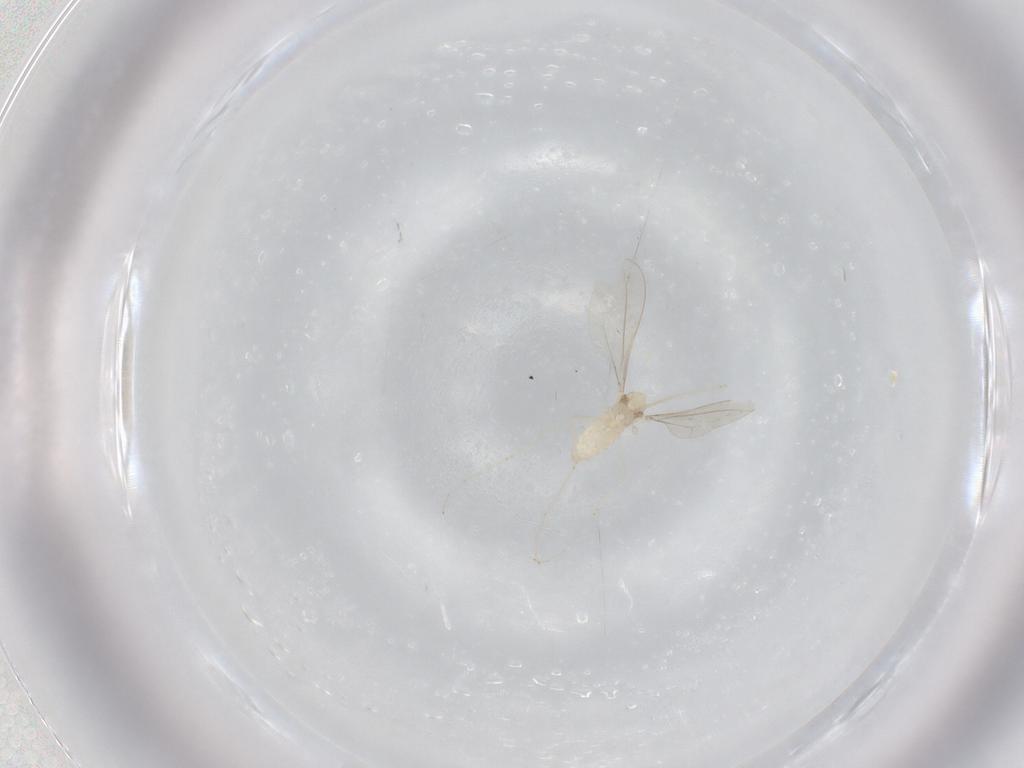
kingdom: Animalia
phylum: Arthropoda
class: Insecta
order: Diptera
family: Cecidomyiidae
